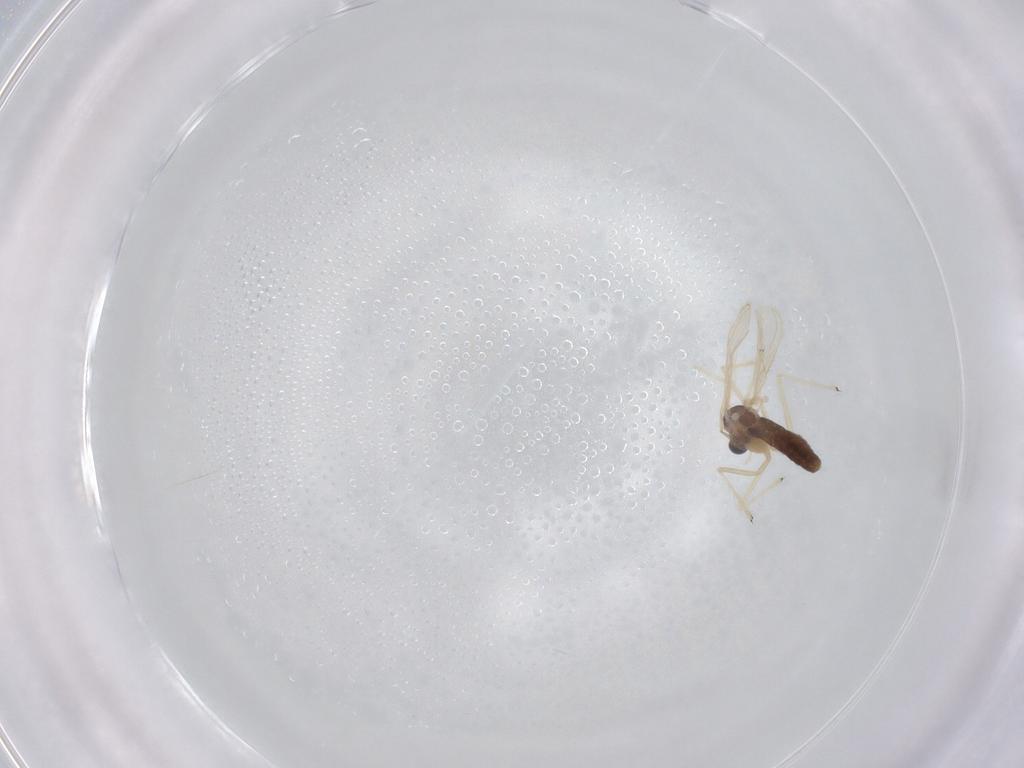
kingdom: Animalia
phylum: Arthropoda
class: Insecta
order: Diptera
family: Chironomidae
